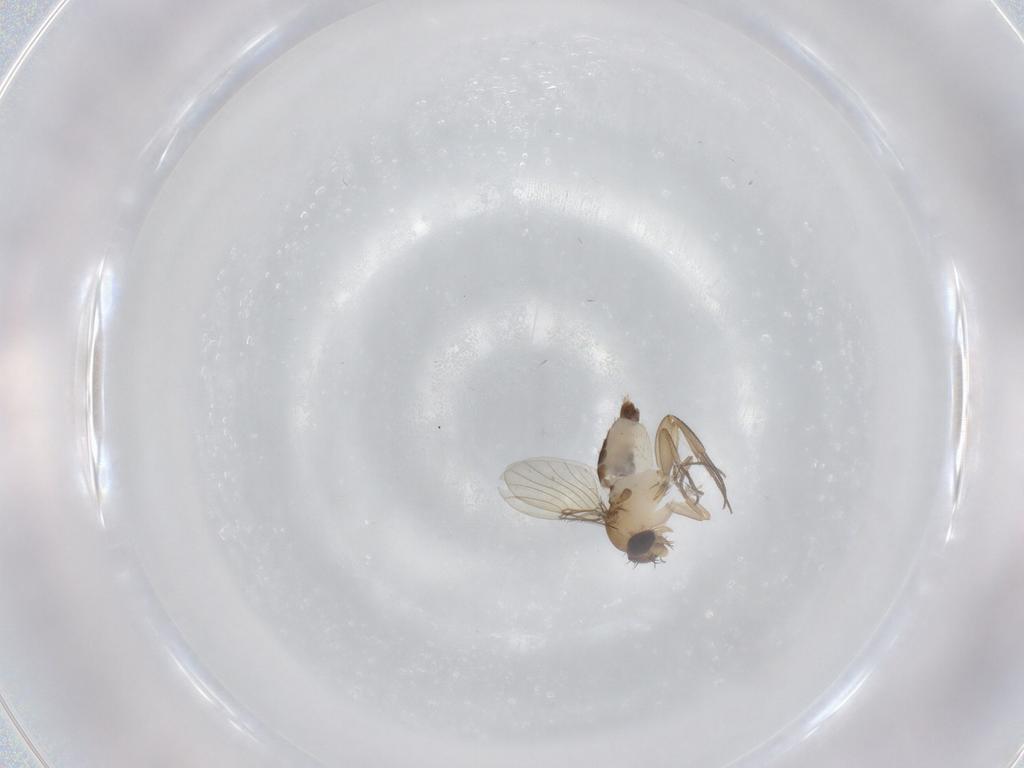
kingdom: Animalia
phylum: Arthropoda
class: Insecta
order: Diptera
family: Phoridae
